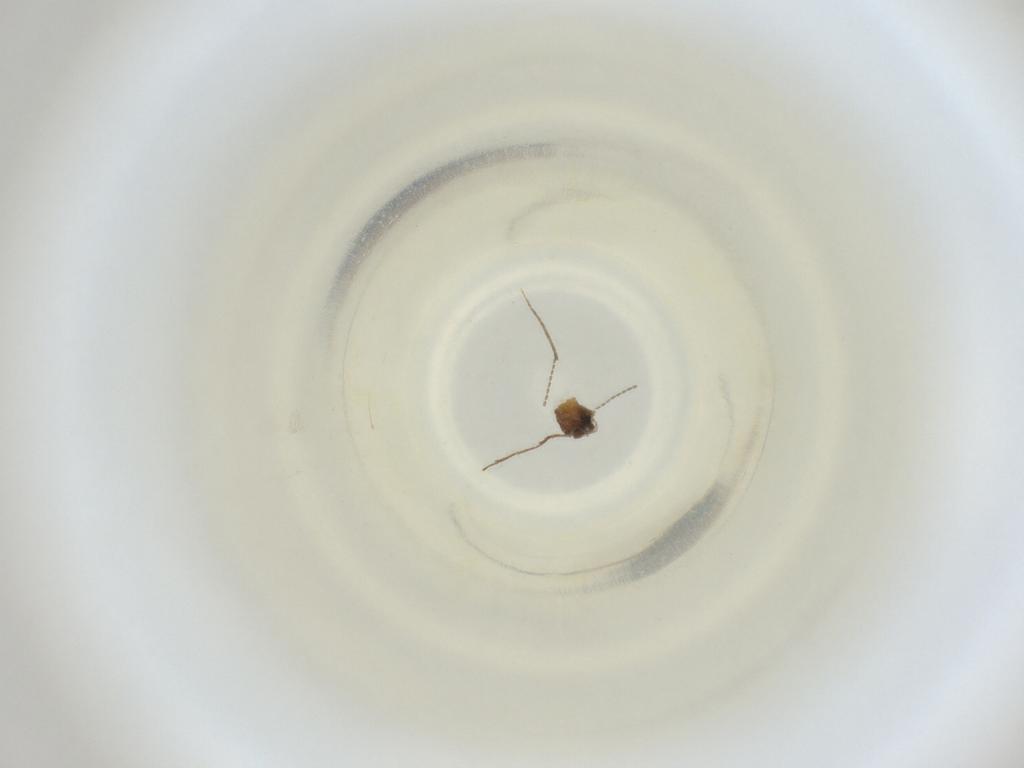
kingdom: Animalia
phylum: Arthropoda
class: Insecta
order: Diptera
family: Cecidomyiidae
